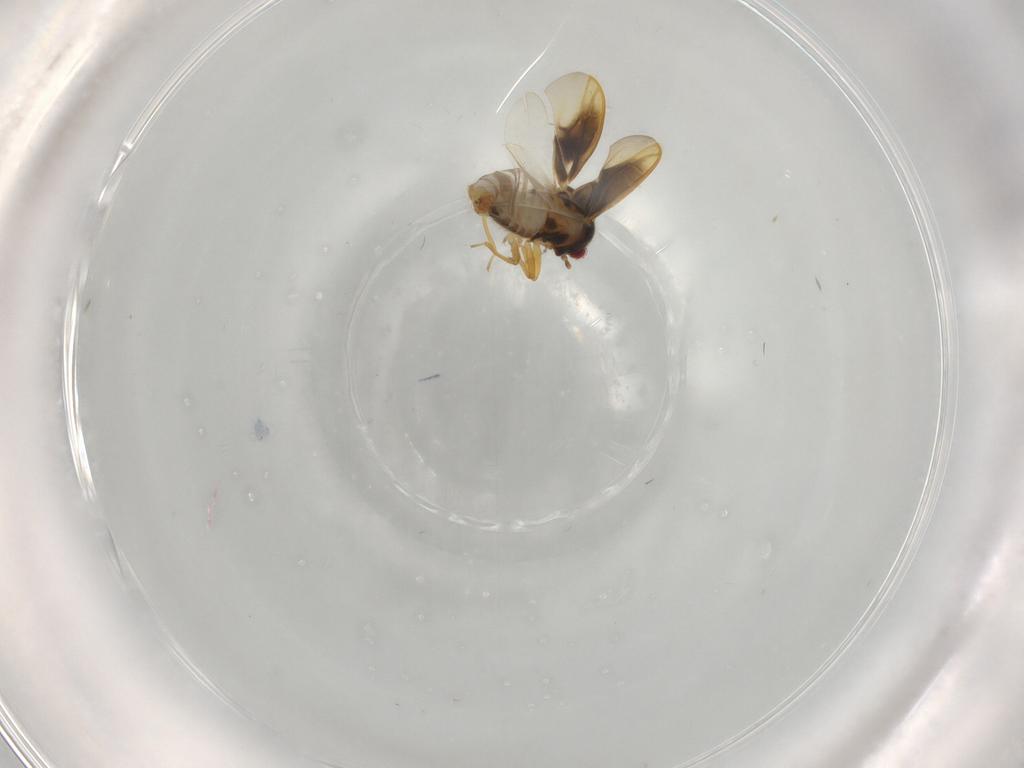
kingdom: Animalia
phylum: Arthropoda
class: Insecta
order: Hemiptera
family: Schizopteridae
